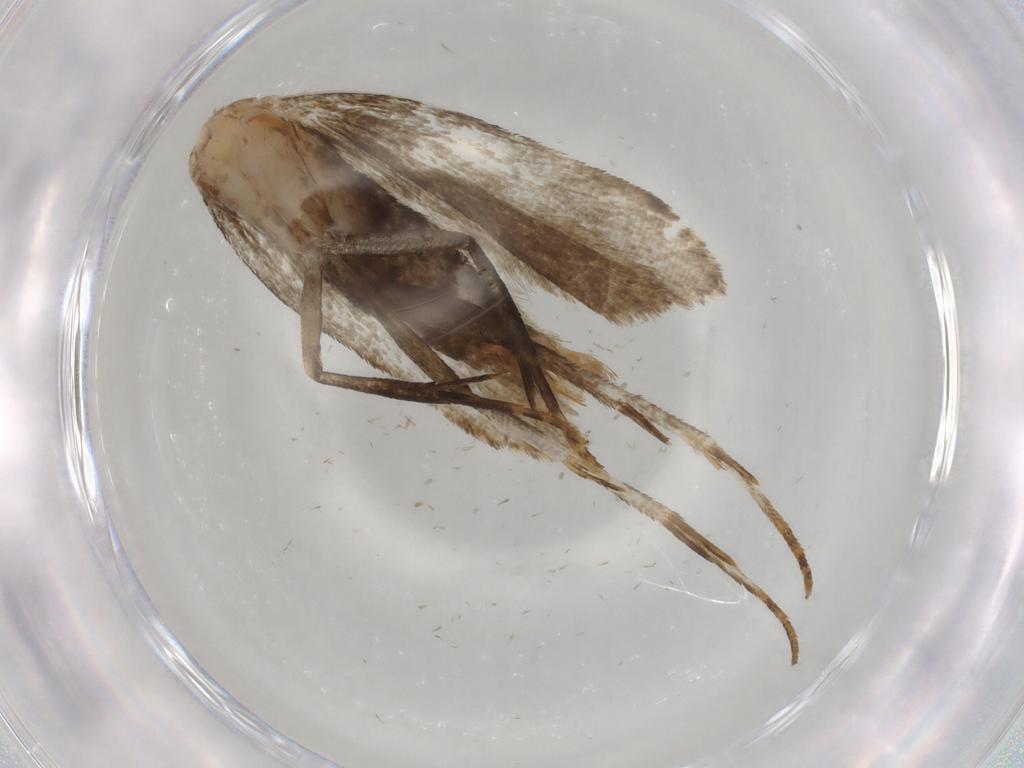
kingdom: Animalia
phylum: Arthropoda
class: Insecta
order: Lepidoptera
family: Gelechiidae
